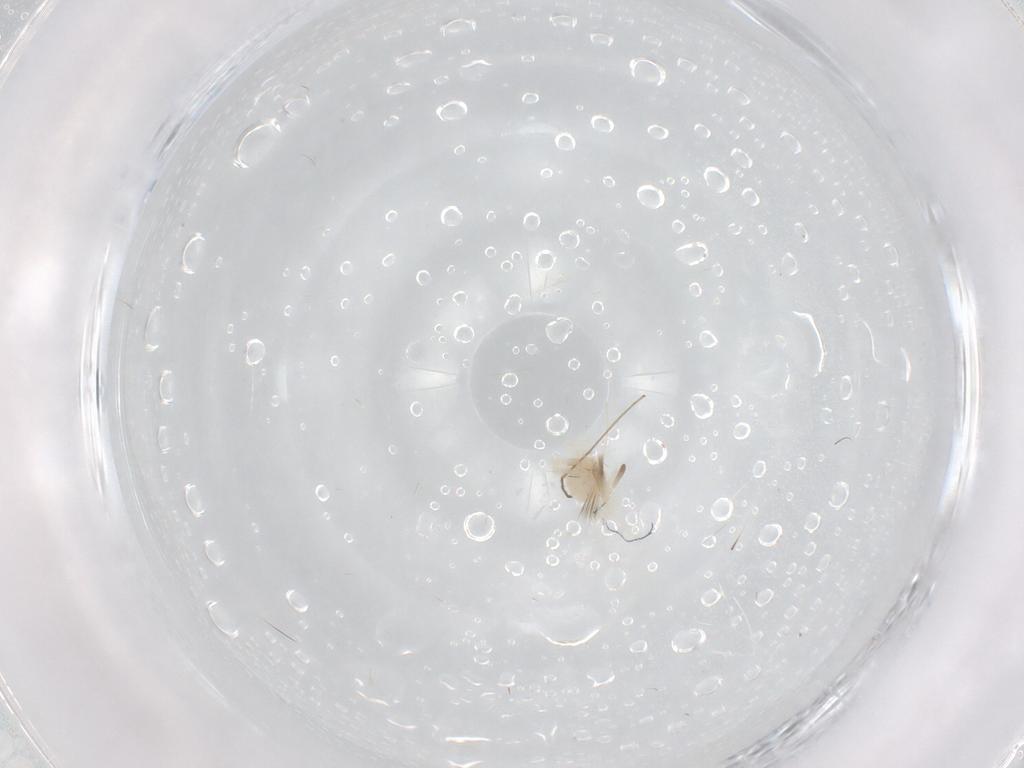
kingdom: Animalia
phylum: Arthropoda
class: Arachnida
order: Trombidiformes
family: Anystidae
